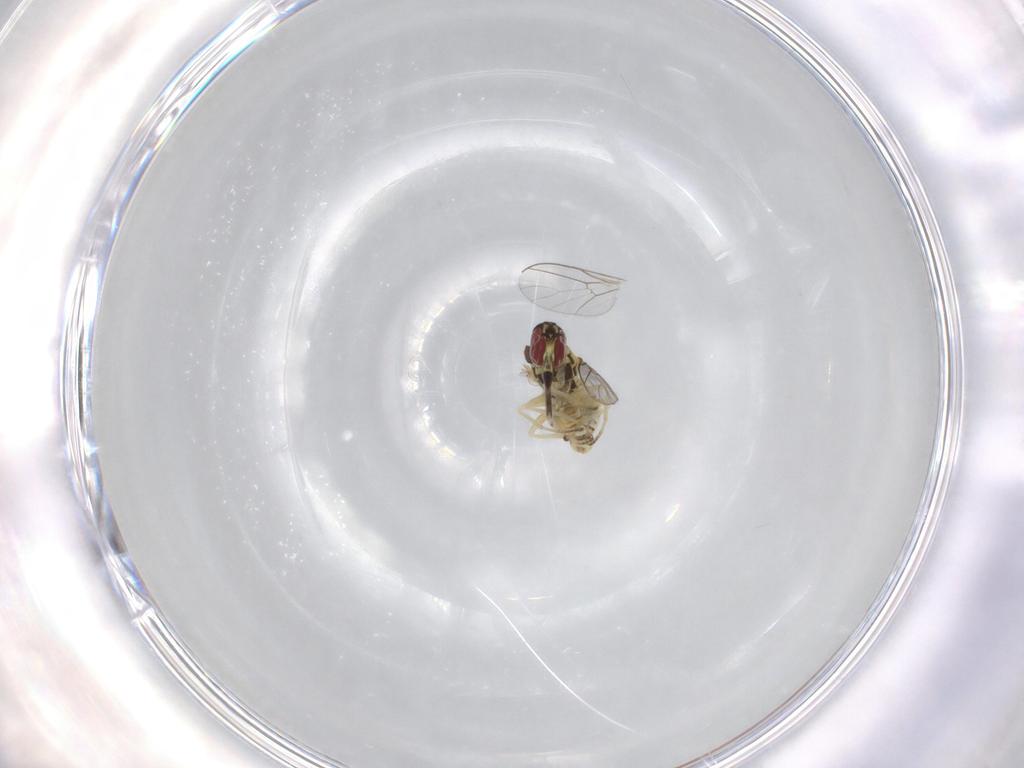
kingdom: Animalia
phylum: Arthropoda
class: Insecta
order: Diptera
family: Bombyliidae
